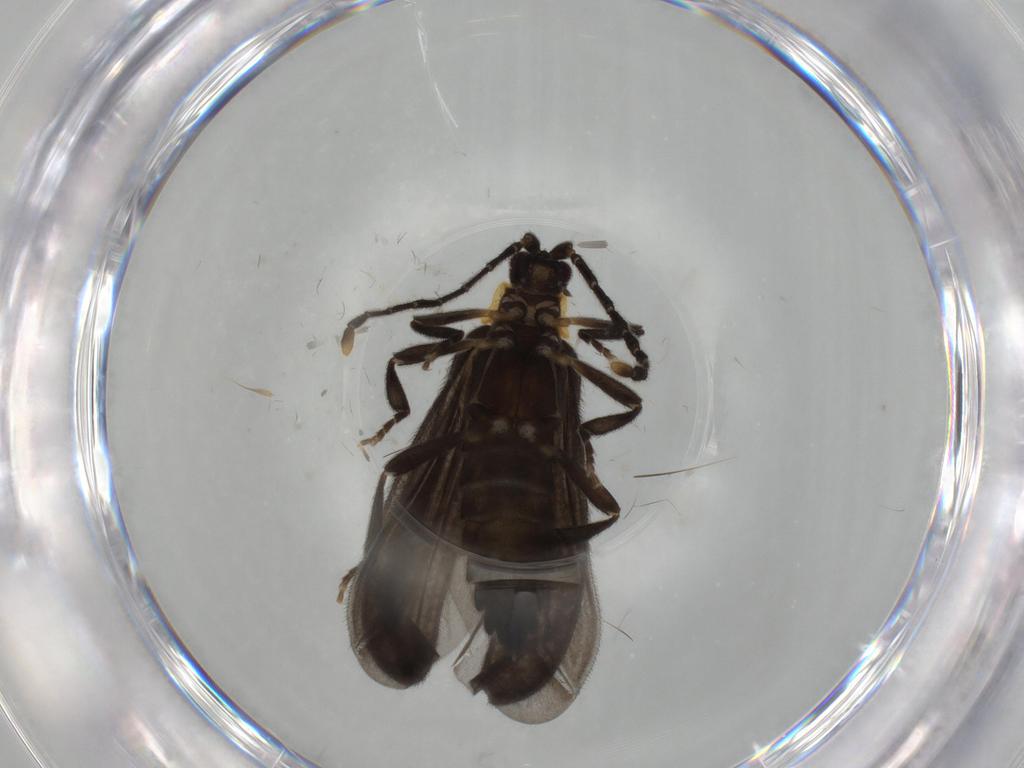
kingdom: Animalia
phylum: Arthropoda
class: Insecta
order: Coleoptera
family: Lycidae
